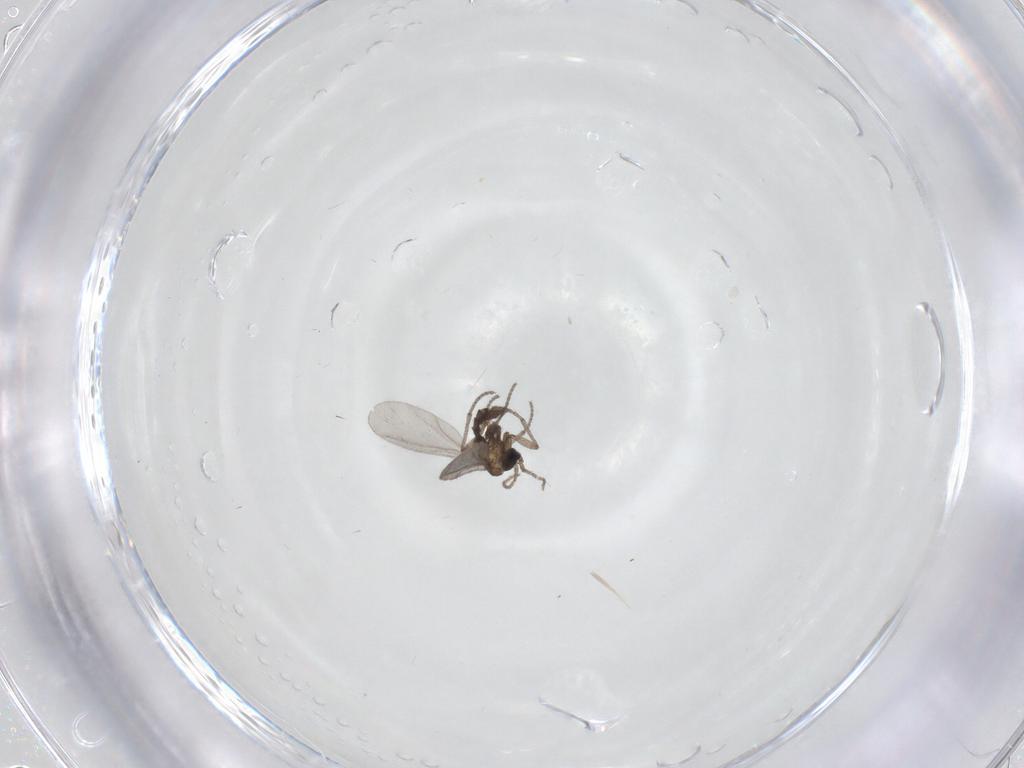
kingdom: Animalia
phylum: Arthropoda
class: Insecta
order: Diptera
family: Sciaridae
